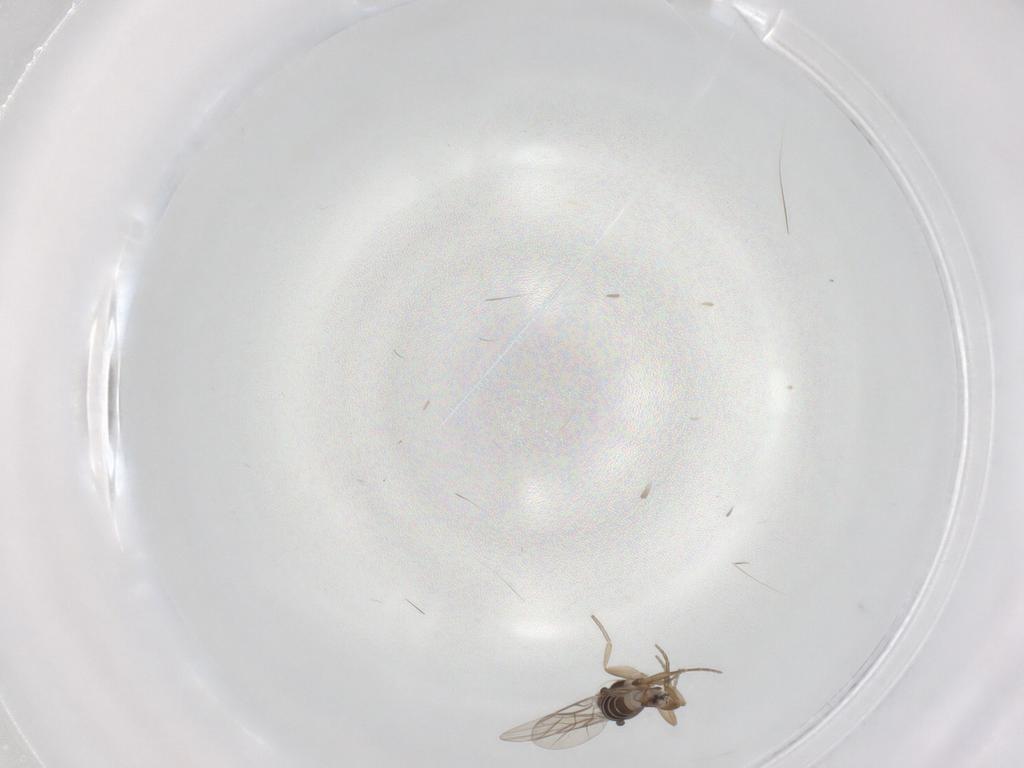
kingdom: Animalia
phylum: Arthropoda
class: Insecta
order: Diptera
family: Phoridae
